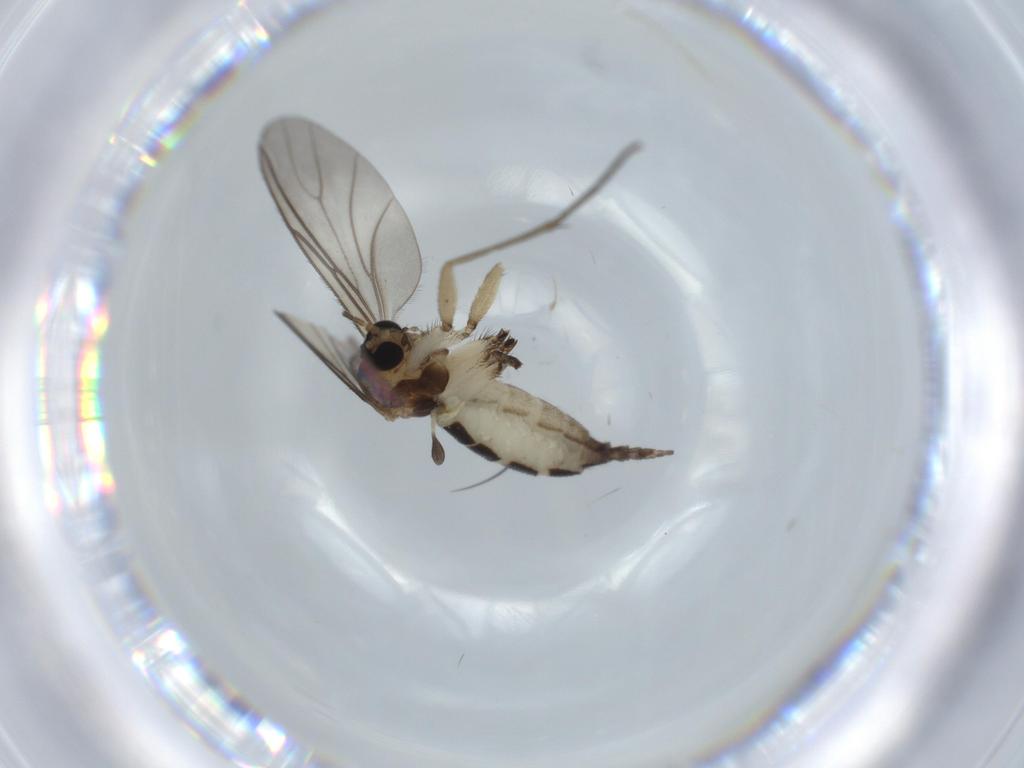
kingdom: Animalia
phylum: Arthropoda
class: Insecta
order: Diptera
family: Sciaridae
